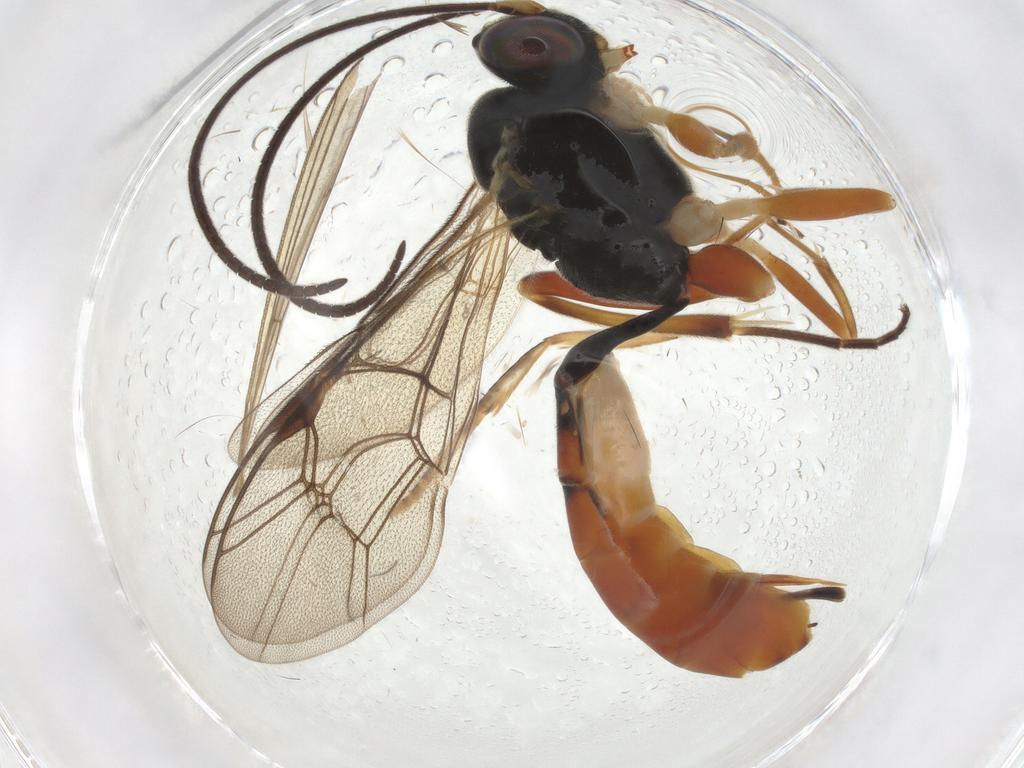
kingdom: Animalia
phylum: Arthropoda
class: Insecta
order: Hymenoptera
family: Ichneumonidae
